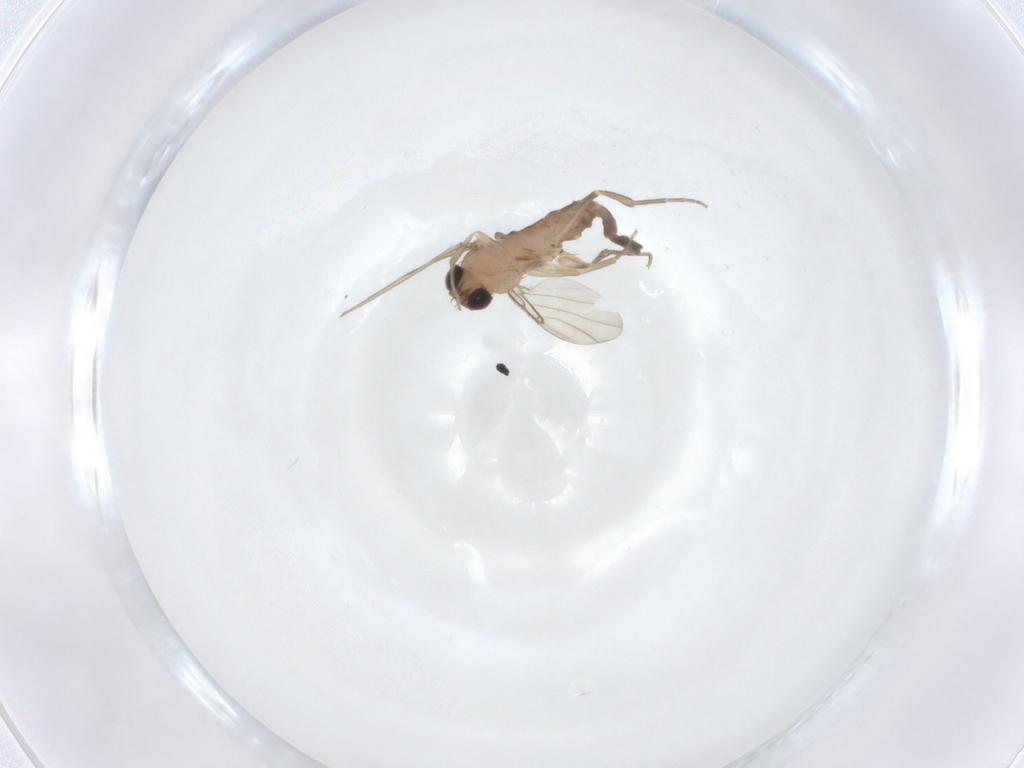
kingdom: Animalia
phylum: Arthropoda
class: Insecta
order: Diptera
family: Phoridae
